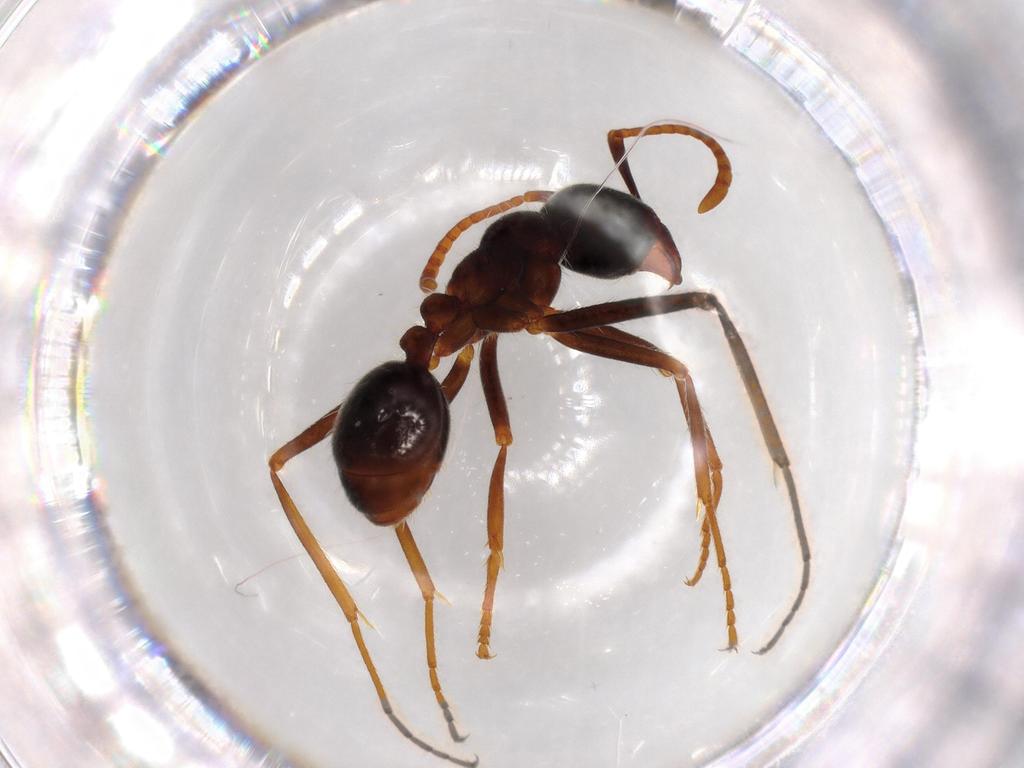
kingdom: Animalia
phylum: Arthropoda
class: Insecta
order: Hymenoptera
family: Formicidae
